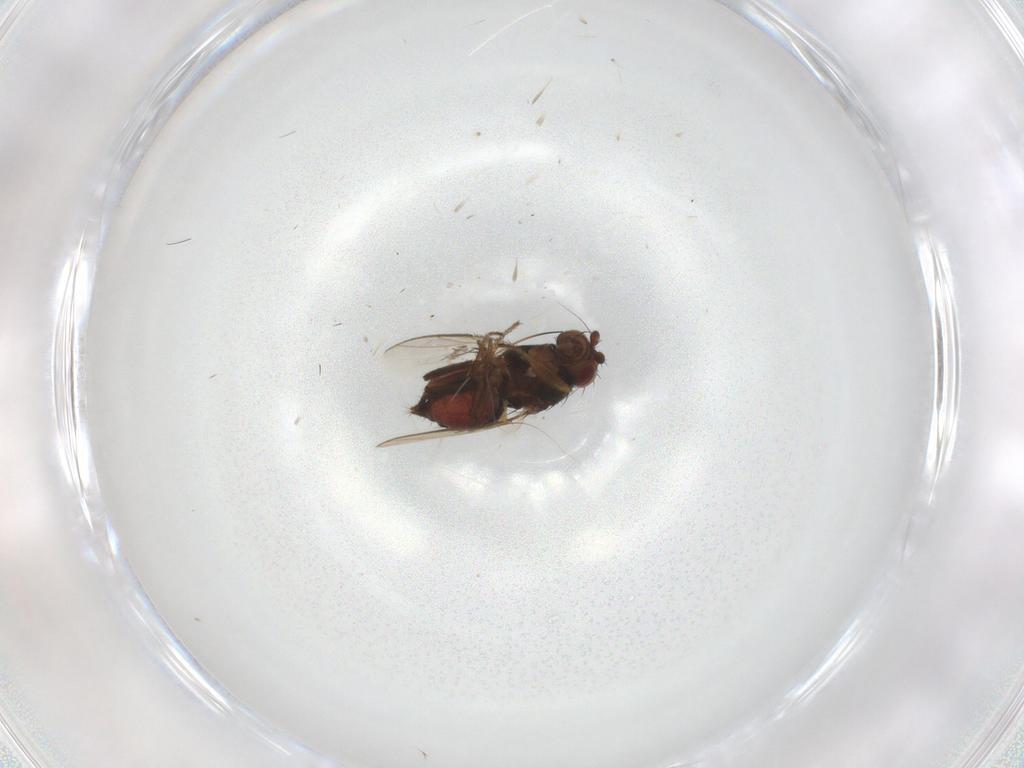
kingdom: Animalia
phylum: Arthropoda
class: Insecta
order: Diptera
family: Sphaeroceridae
